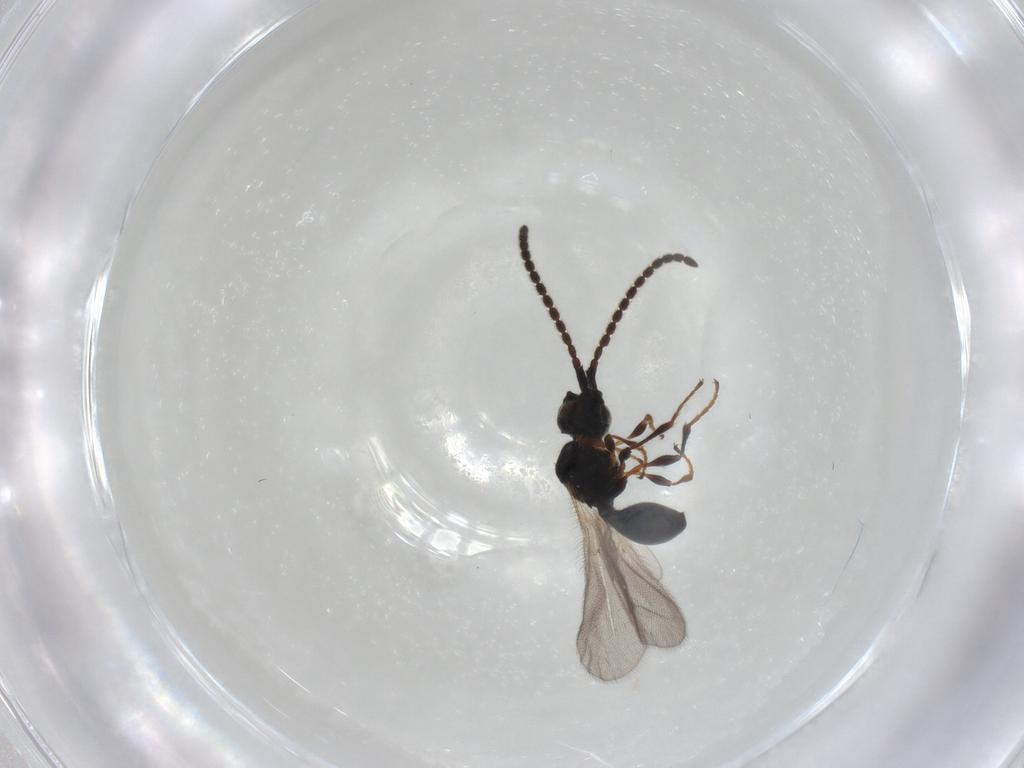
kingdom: Animalia
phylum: Arthropoda
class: Insecta
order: Hymenoptera
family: Diapriidae
